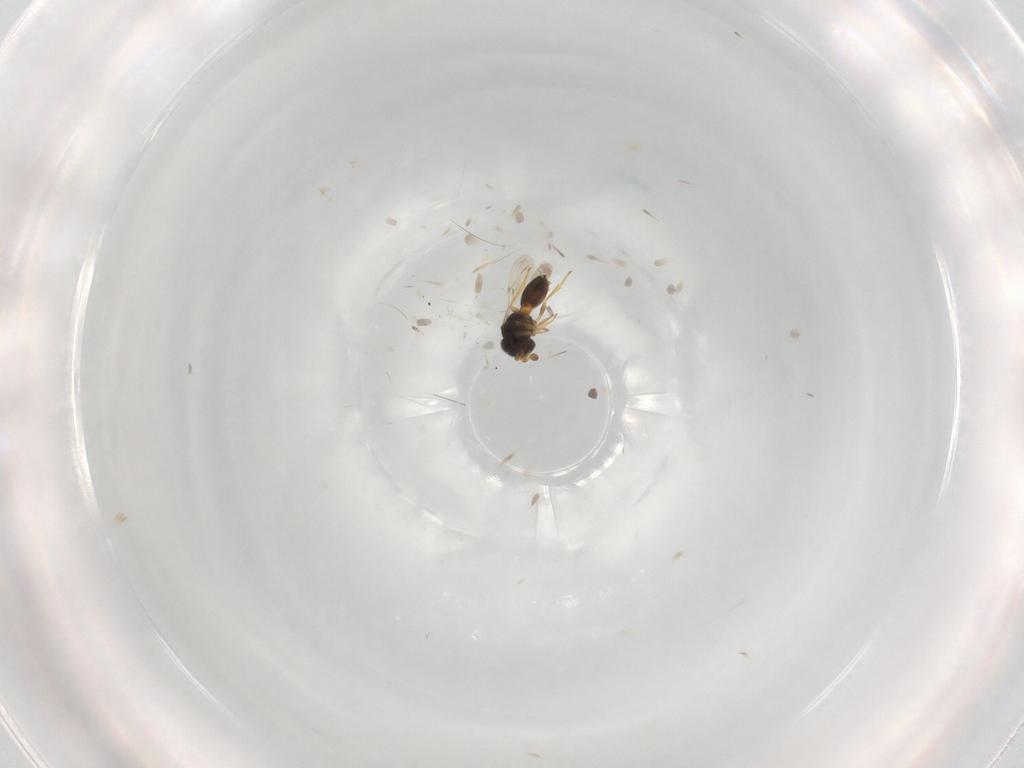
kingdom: Animalia
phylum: Arthropoda
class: Insecta
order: Hymenoptera
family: Scelionidae
